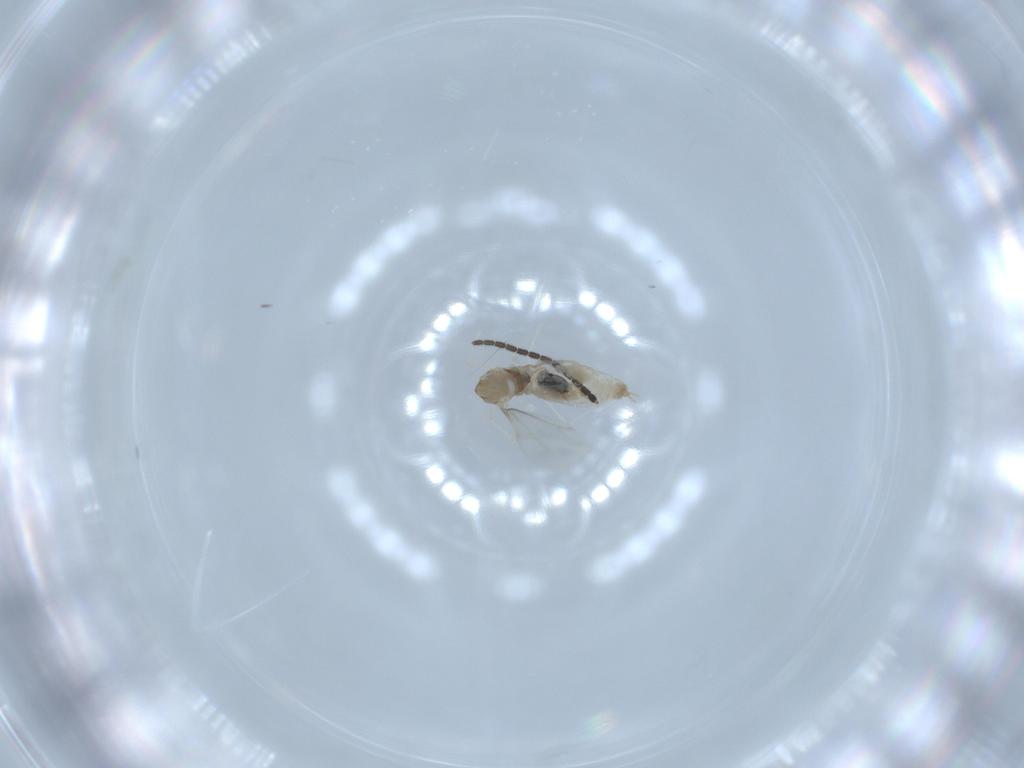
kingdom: Animalia
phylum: Arthropoda
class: Insecta
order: Diptera
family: Cecidomyiidae
